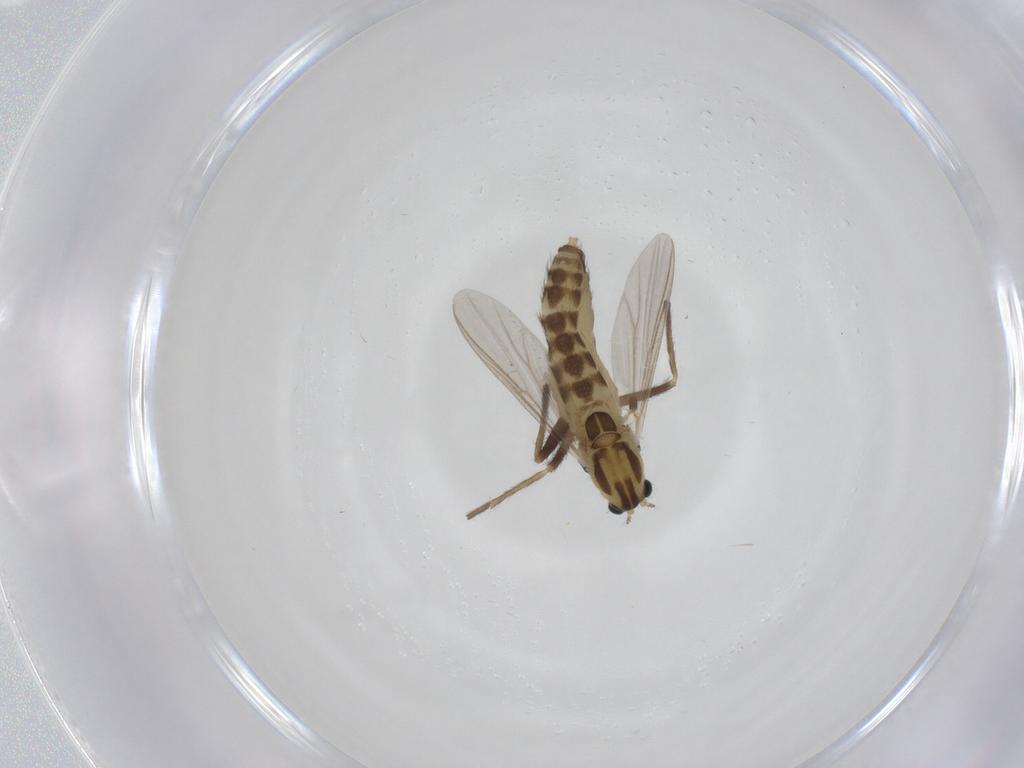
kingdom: Animalia
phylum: Arthropoda
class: Insecta
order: Diptera
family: Chironomidae
